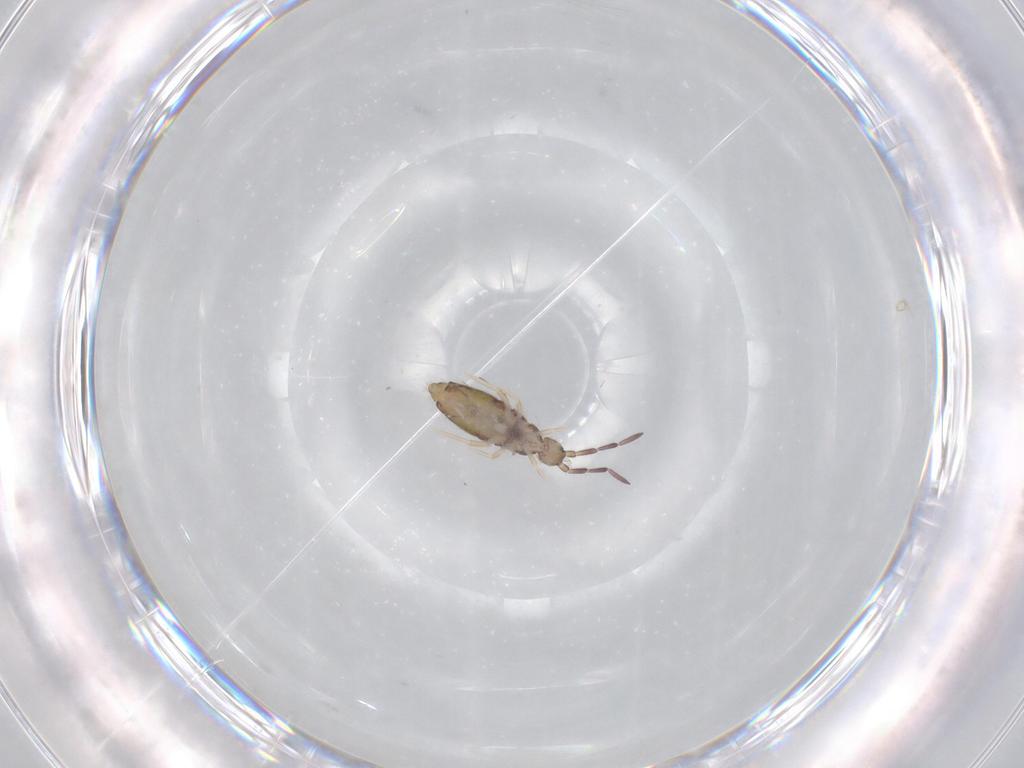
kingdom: Animalia
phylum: Arthropoda
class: Collembola
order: Entomobryomorpha
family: Entomobryidae
